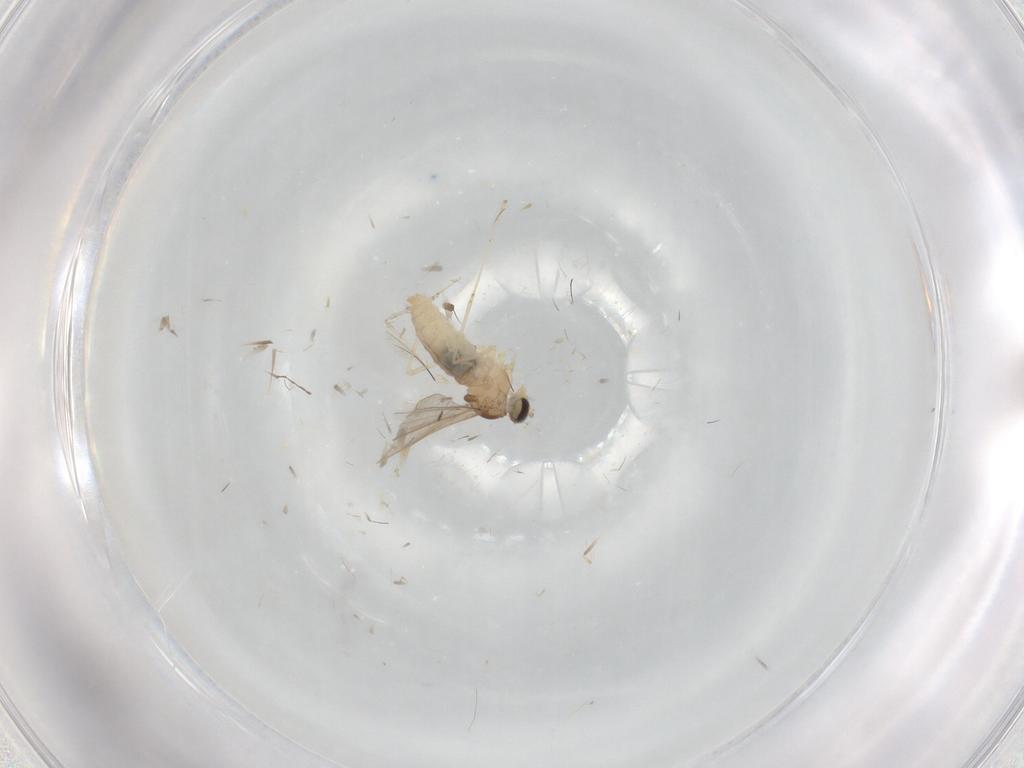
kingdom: Animalia
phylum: Arthropoda
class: Insecta
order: Diptera
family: Cecidomyiidae
